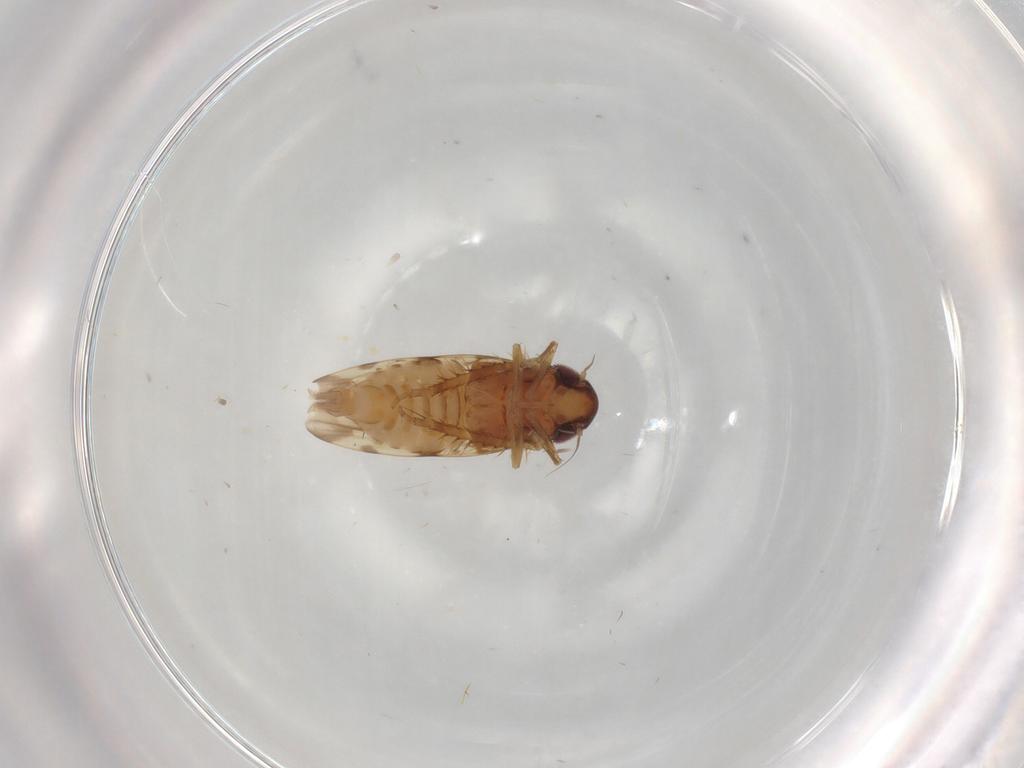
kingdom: Animalia
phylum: Arthropoda
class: Insecta
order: Hemiptera
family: Cicadellidae
